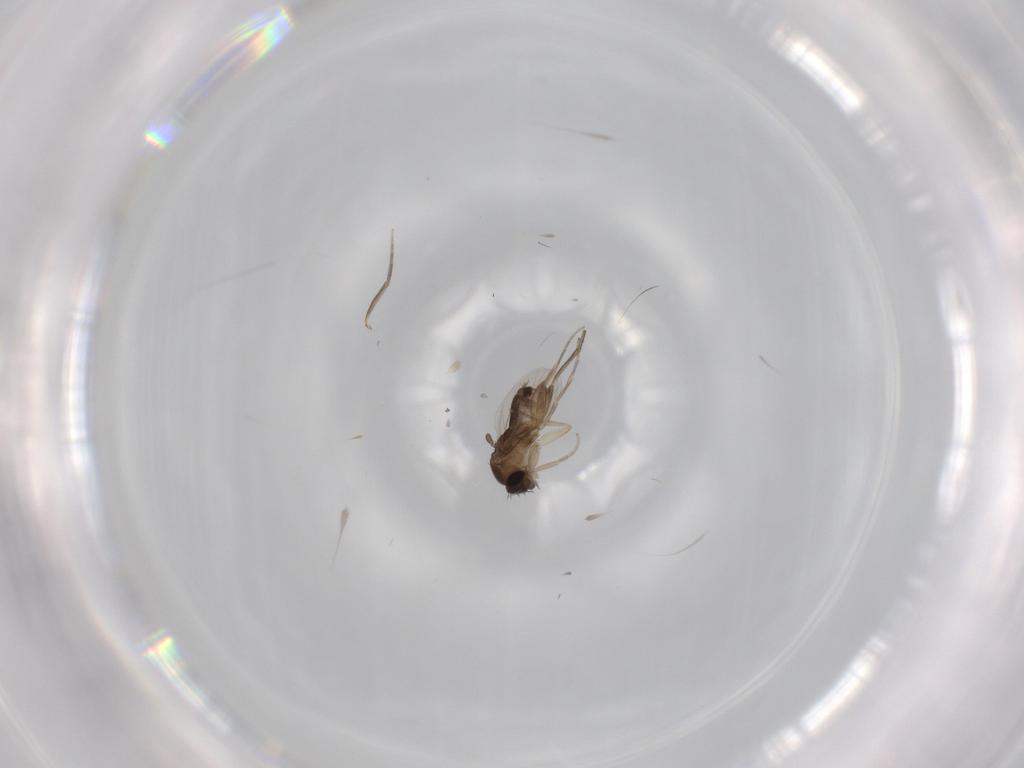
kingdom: Animalia
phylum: Arthropoda
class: Insecta
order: Diptera
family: Phoridae
